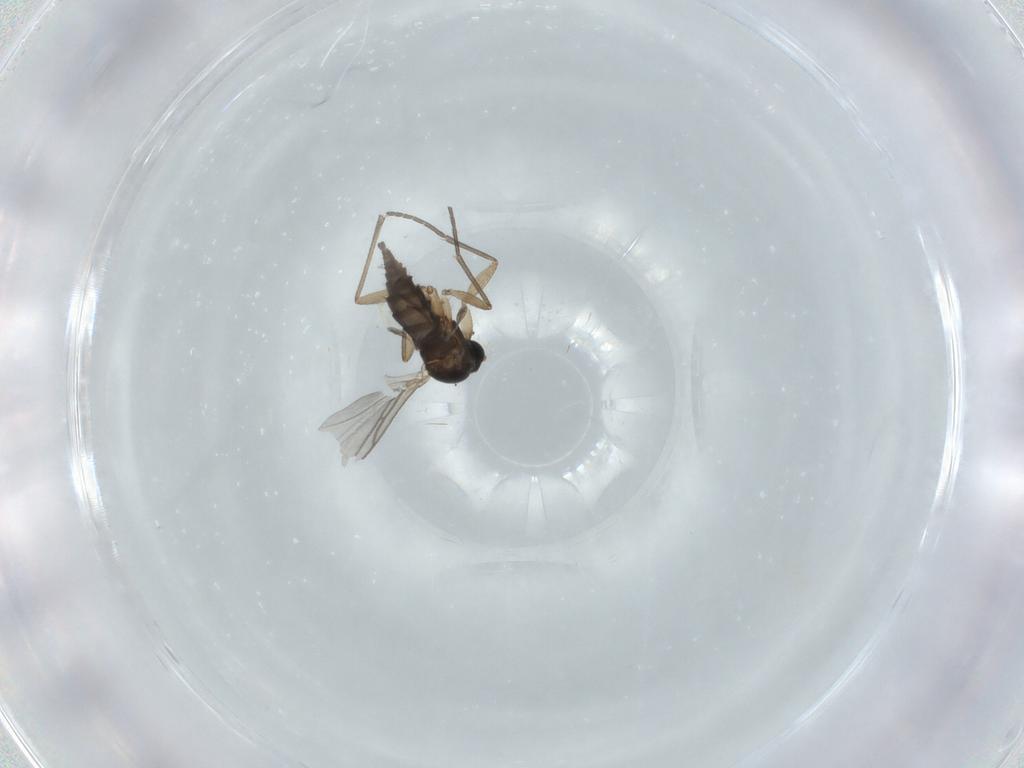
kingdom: Animalia
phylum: Arthropoda
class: Insecta
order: Diptera
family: Sciaridae
